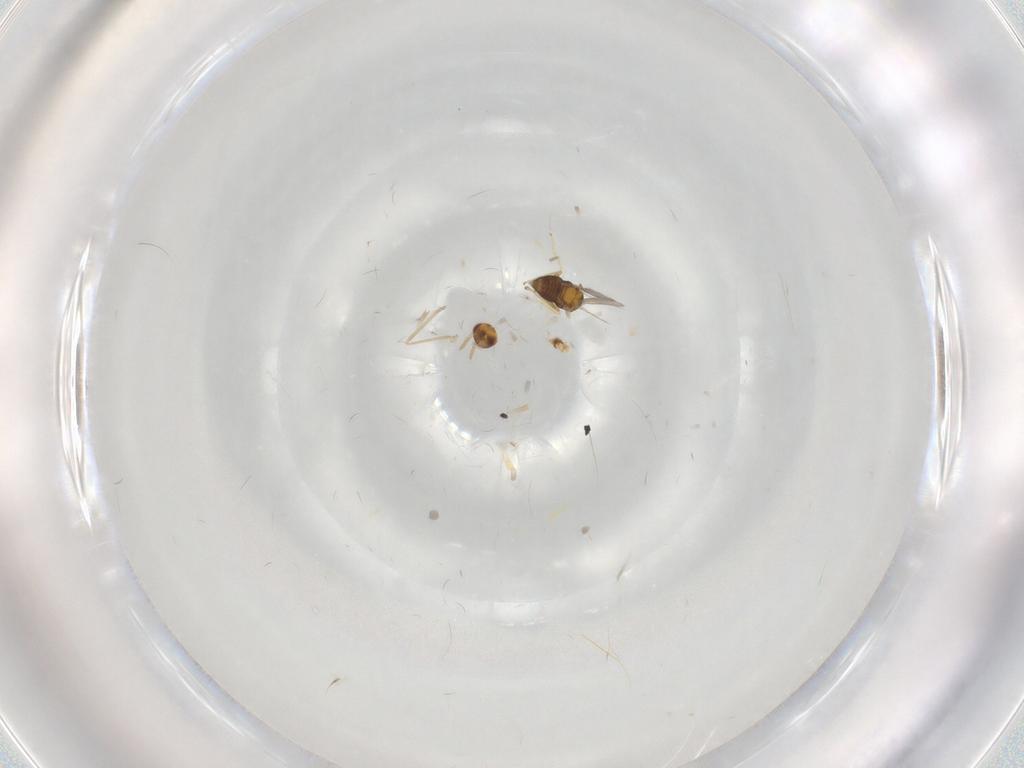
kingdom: Animalia
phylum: Arthropoda
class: Insecta
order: Hymenoptera
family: Aphelinidae
